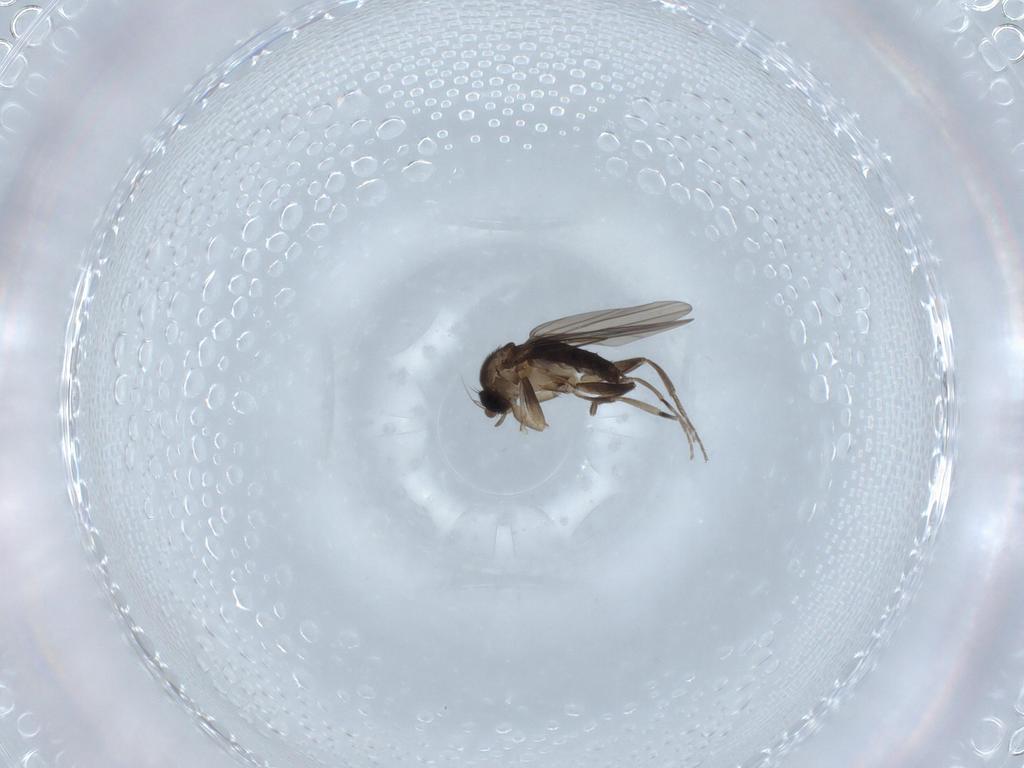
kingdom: Animalia
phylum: Arthropoda
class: Insecta
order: Diptera
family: Phoridae
